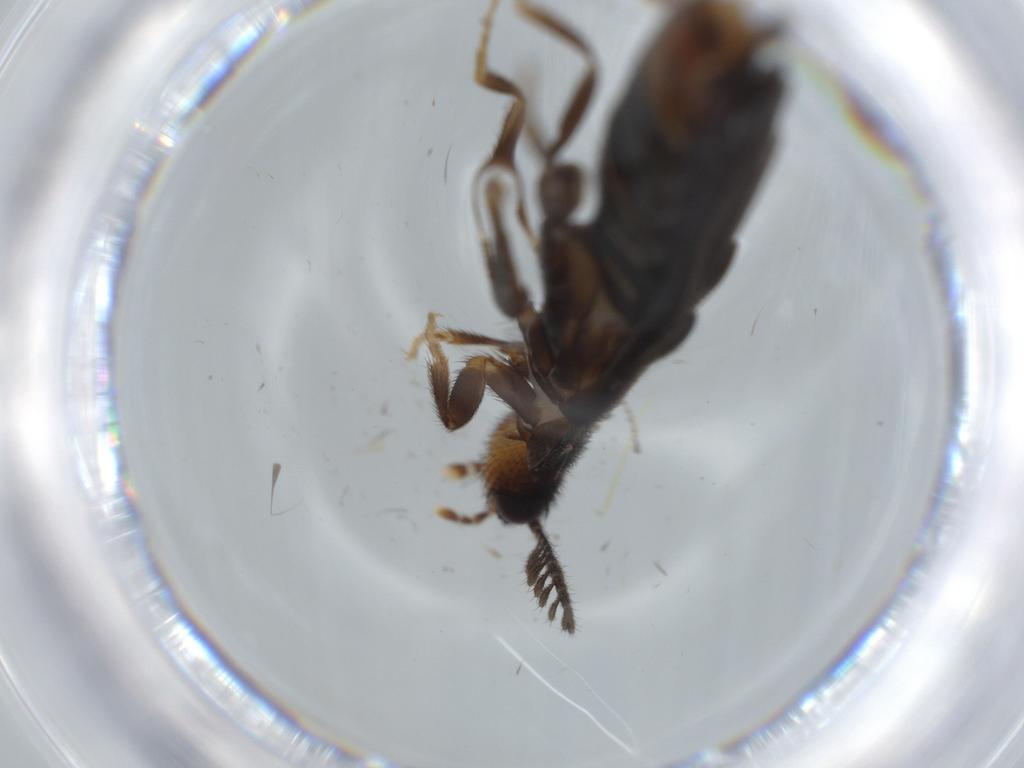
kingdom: Animalia
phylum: Arthropoda
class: Insecta
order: Coleoptera
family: Phengodidae
